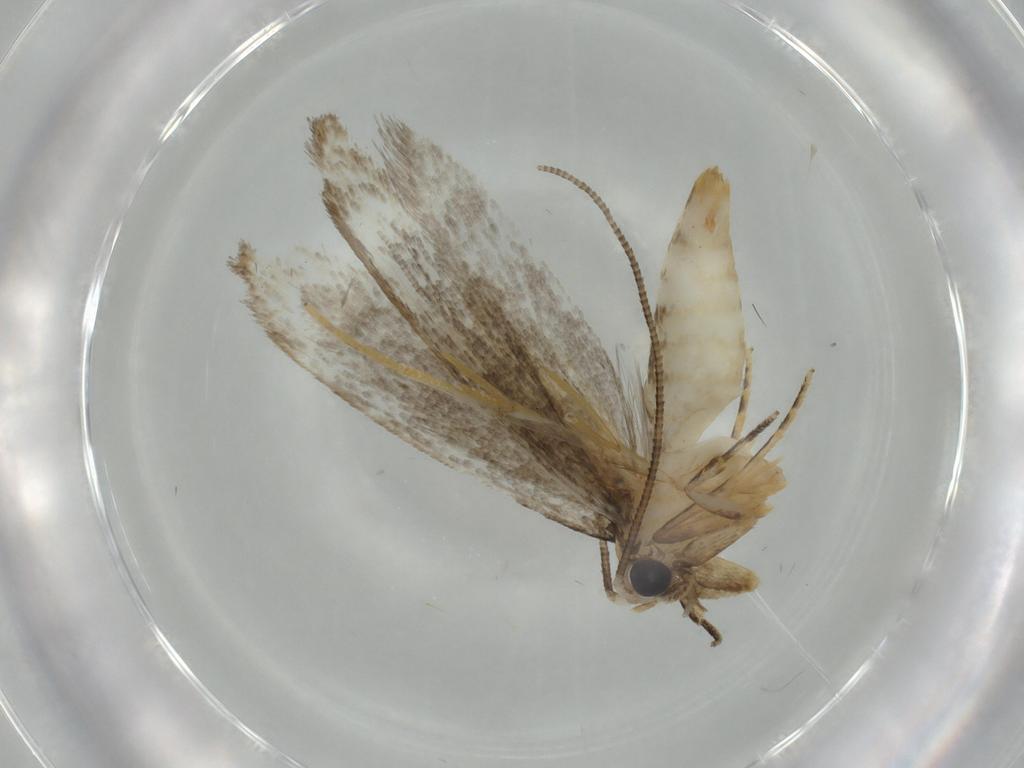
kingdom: Animalia
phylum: Arthropoda
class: Insecta
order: Lepidoptera
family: Tineidae
